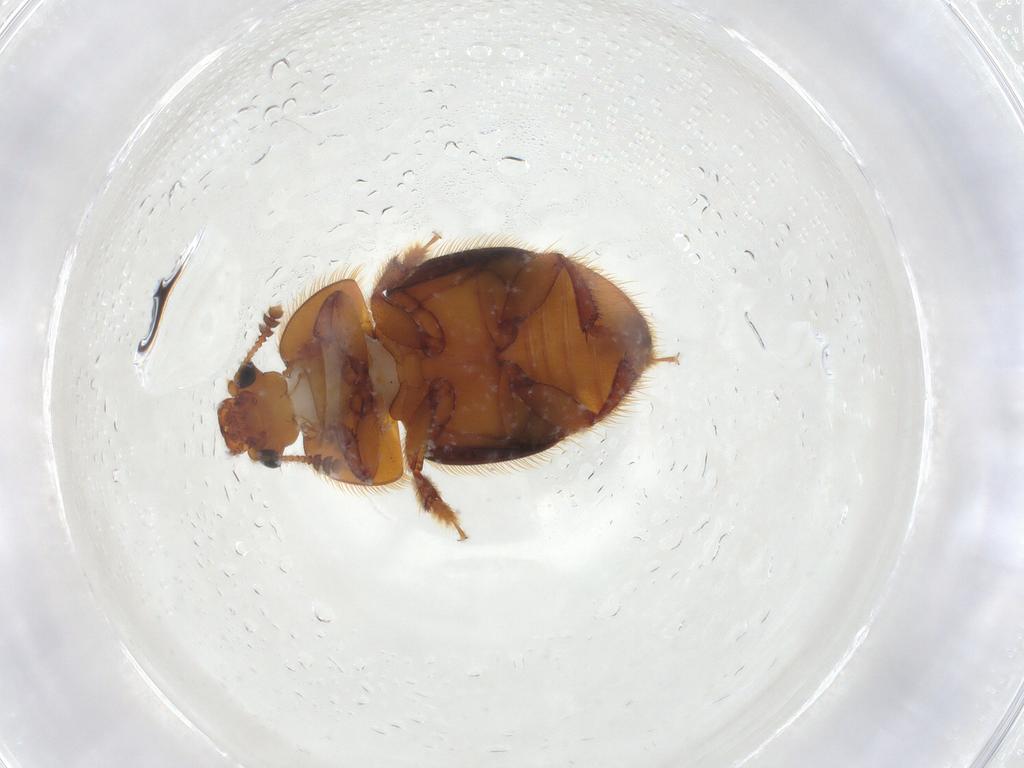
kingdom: Animalia
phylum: Arthropoda
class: Insecta
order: Coleoptera
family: Nitidulidae
